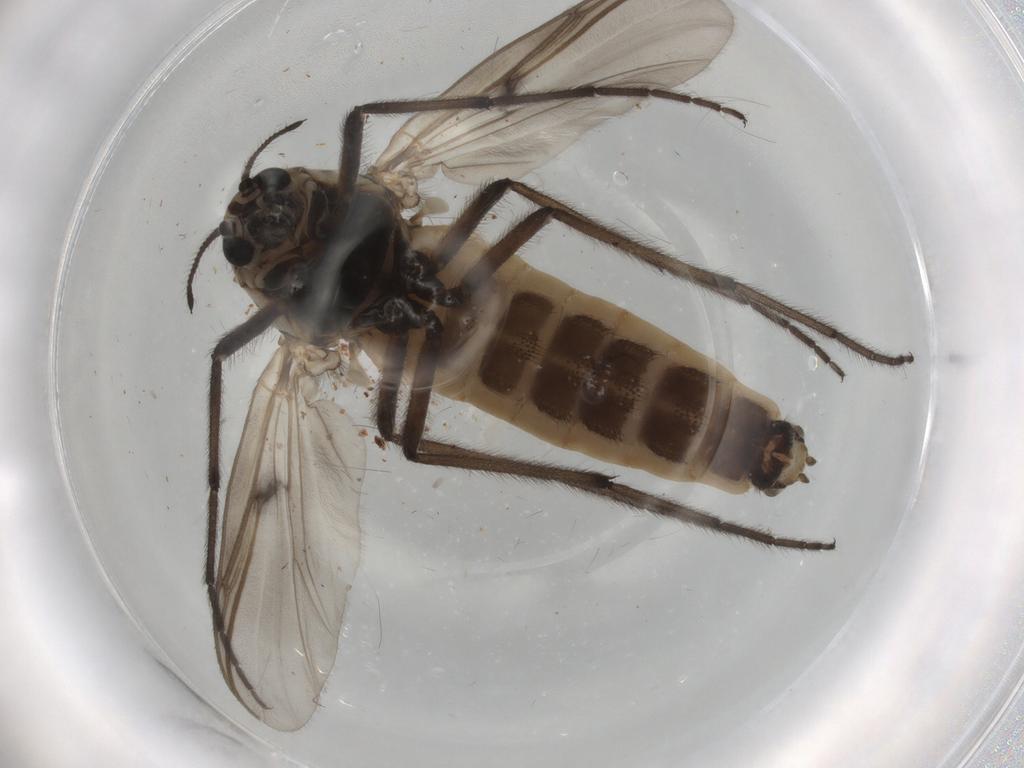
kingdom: Animalia
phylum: Arthropoda
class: Insecta
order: Diptera
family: Chironomidae
